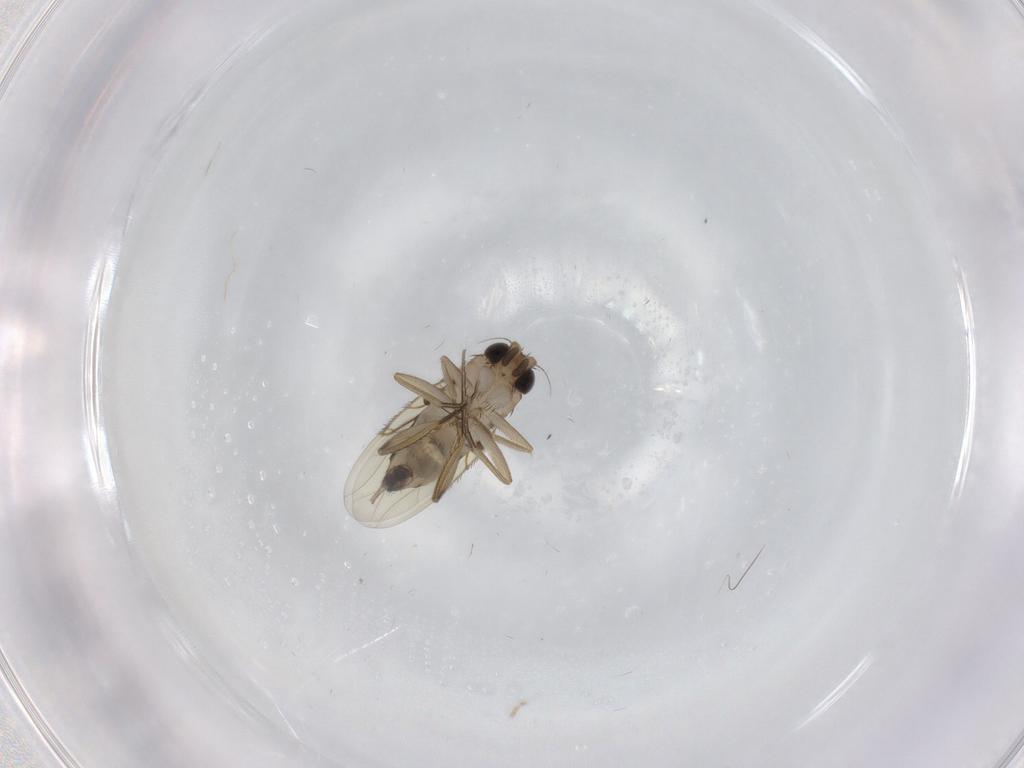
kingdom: Animalia
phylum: Arthropoda
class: Insecta
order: Diptera
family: Phoridae
